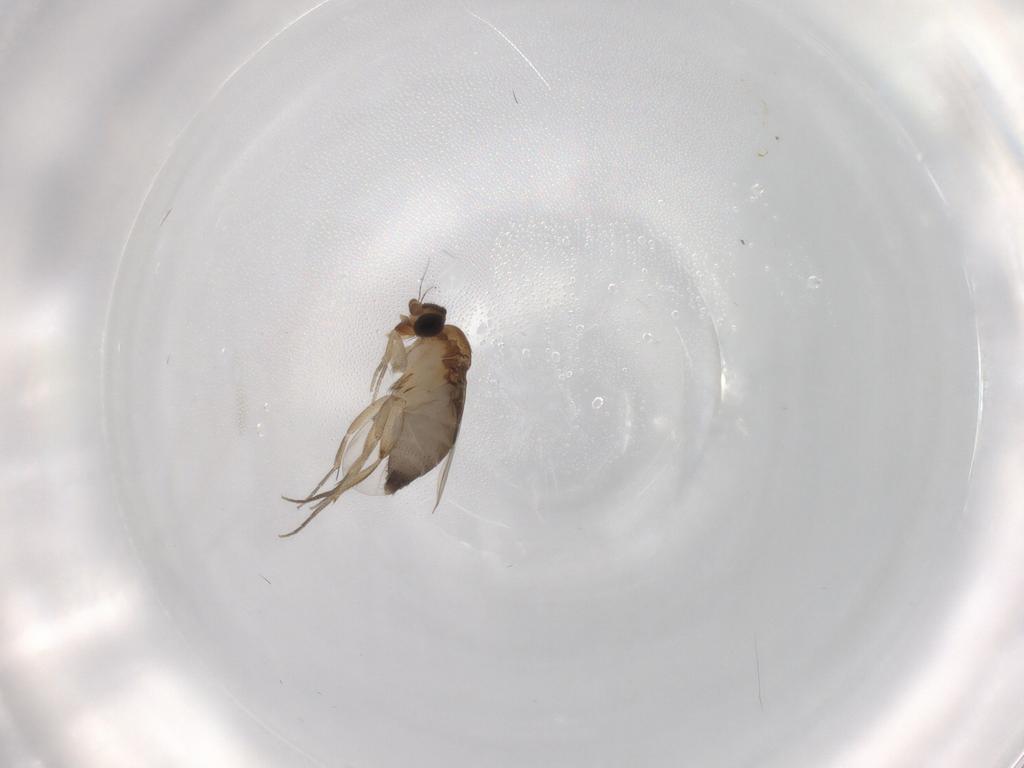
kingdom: Animalia
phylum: Arthropoda
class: Insecta
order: Diptera
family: Phoridae
